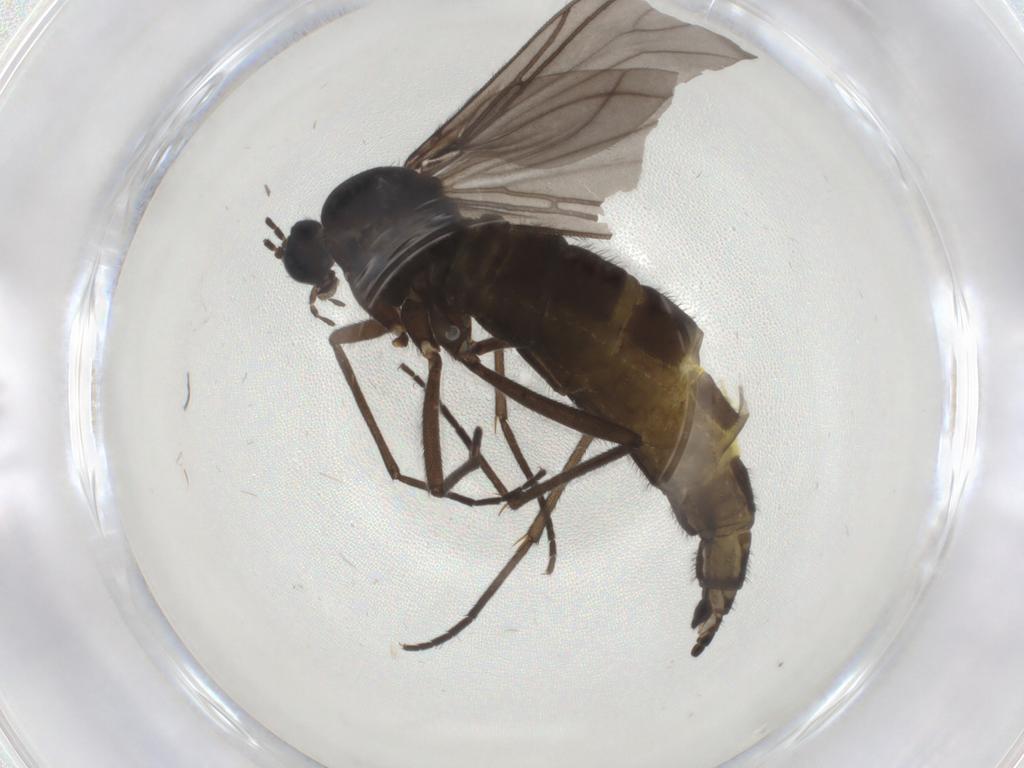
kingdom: Animalia
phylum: Arthropoda
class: Insecta
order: Diptera
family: Sciaridae
